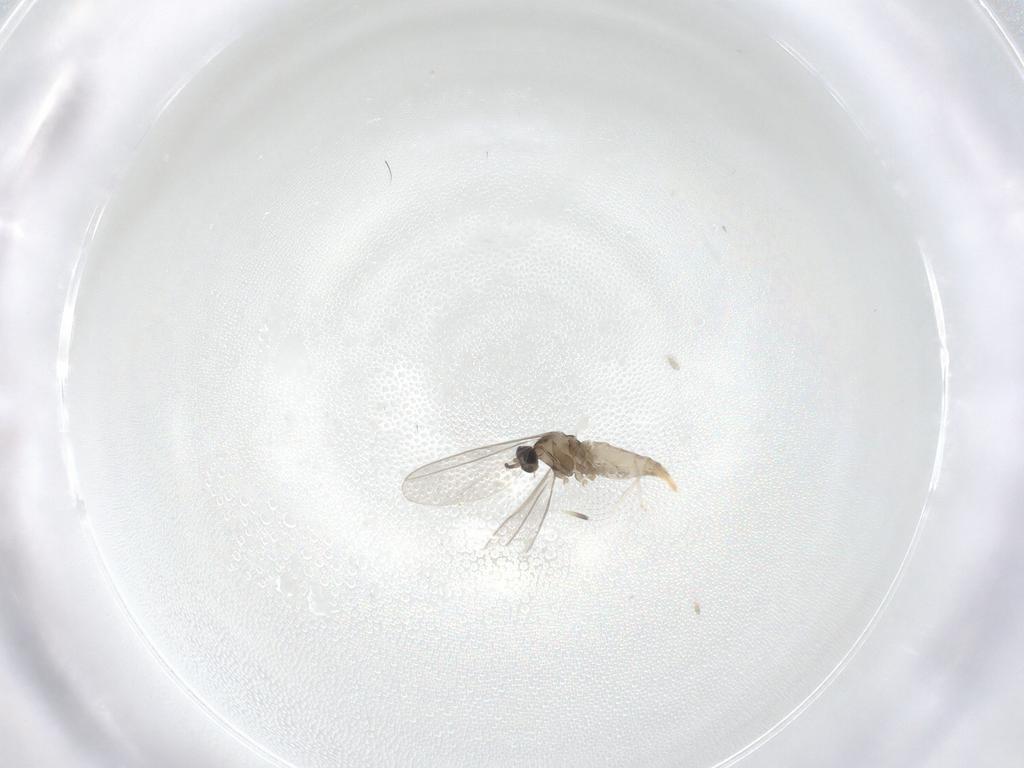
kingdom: Animalia
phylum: Arthropoda
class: Insecta
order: Diptera
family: Cecidomyiidae
